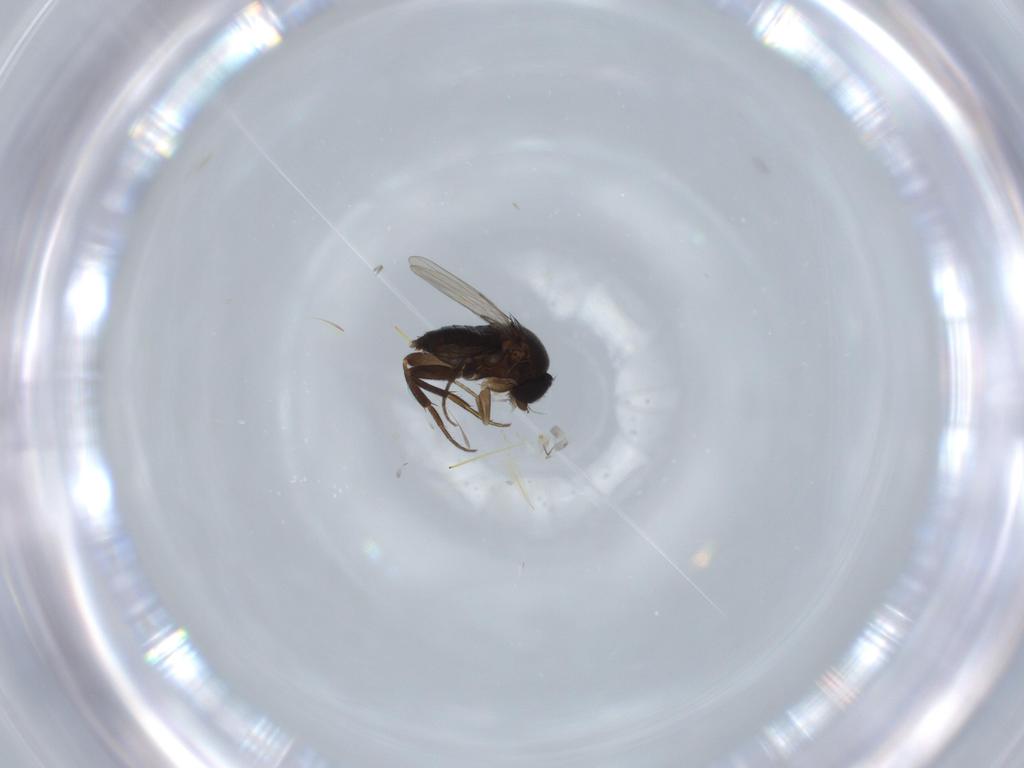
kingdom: Animalia
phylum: Arthropoda
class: Insecta
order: Diptera
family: Phoridae
